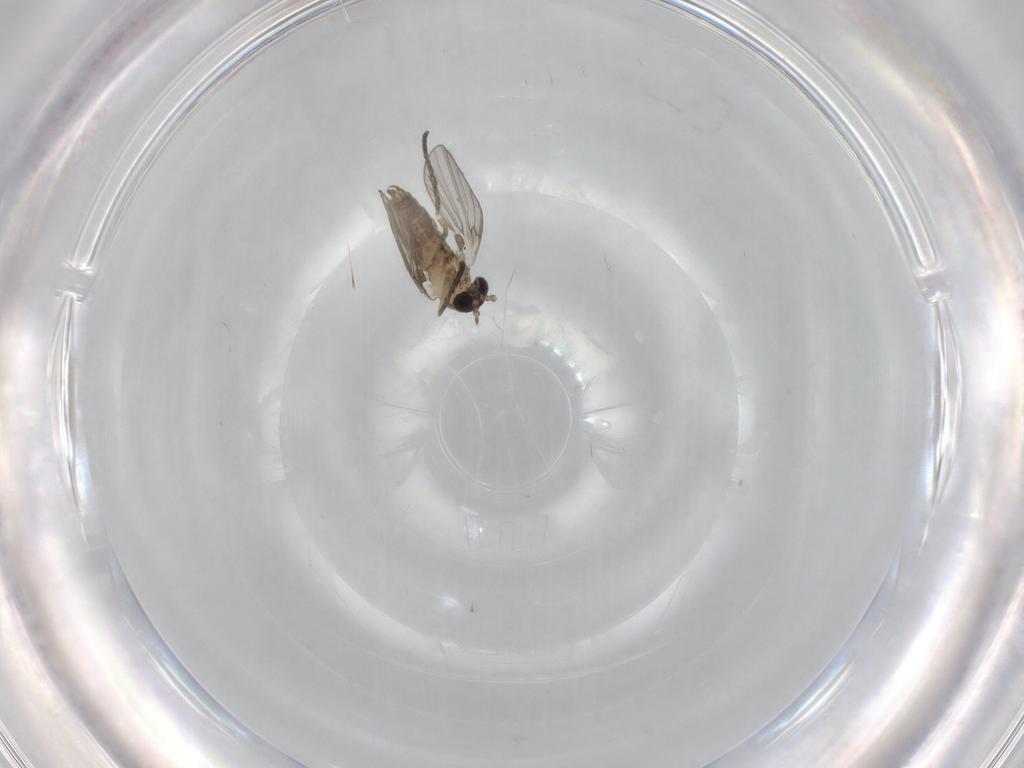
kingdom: Animalia
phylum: Arthropoda
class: Insecta
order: Diptera
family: Psychodidae
